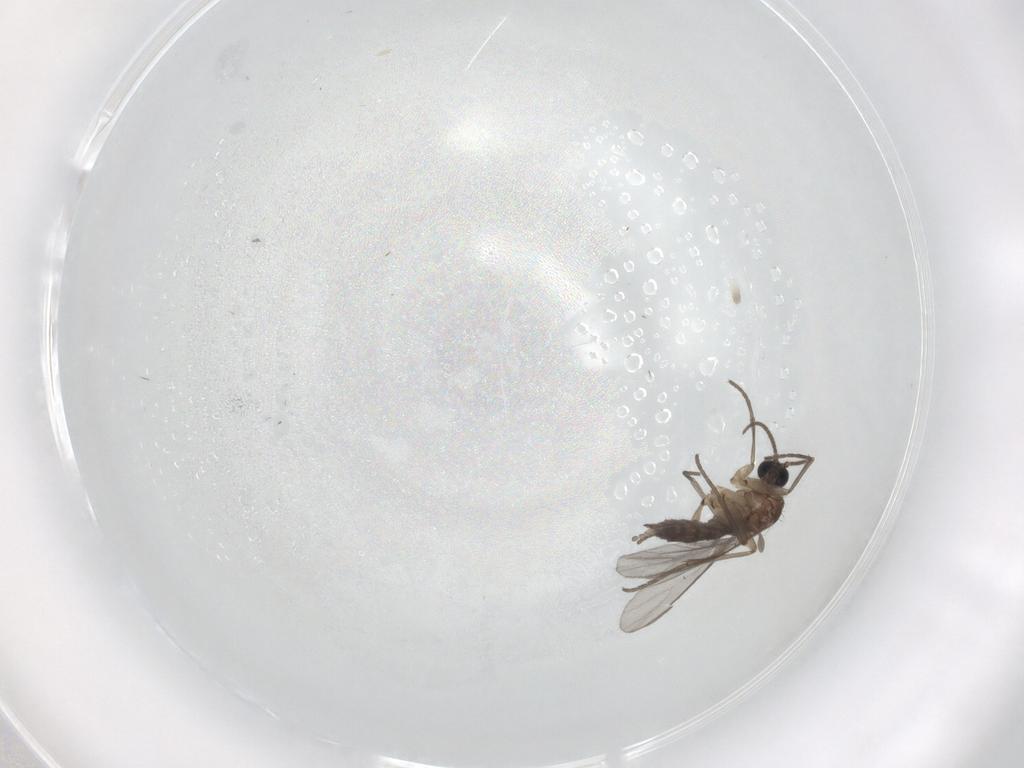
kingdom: Animalia
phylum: Arthropoda
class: Insecta
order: Diptera
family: Sciaridae
